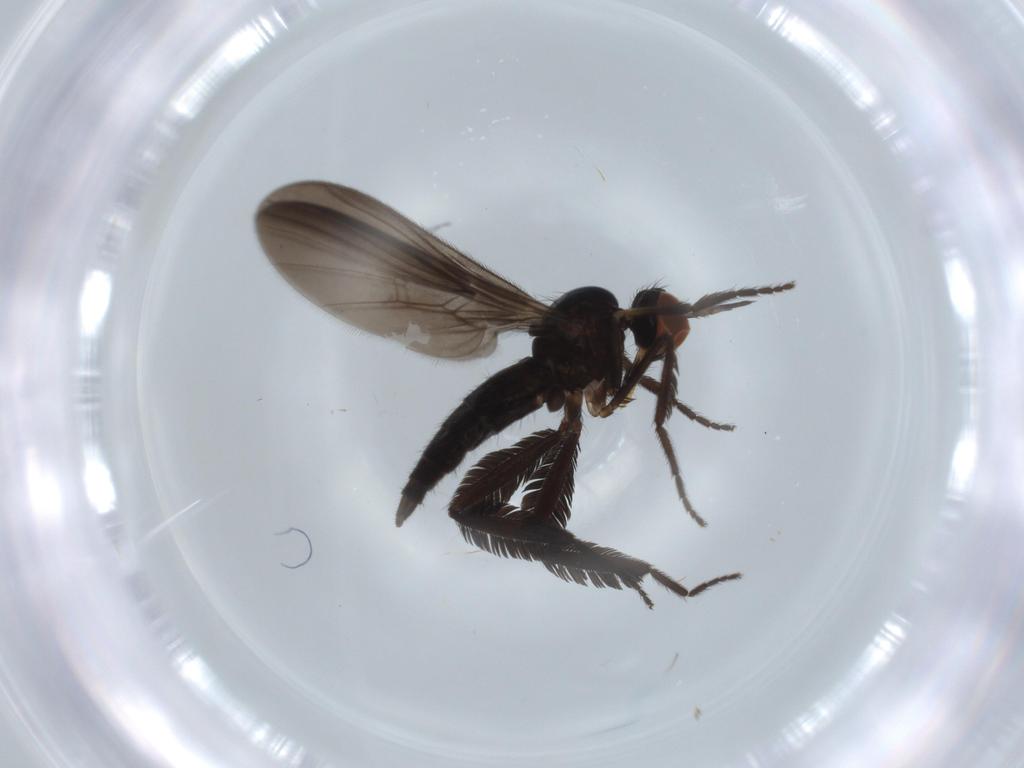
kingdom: Animalia
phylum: Arthropoda
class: Insecta
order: Diptera
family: Empididae
